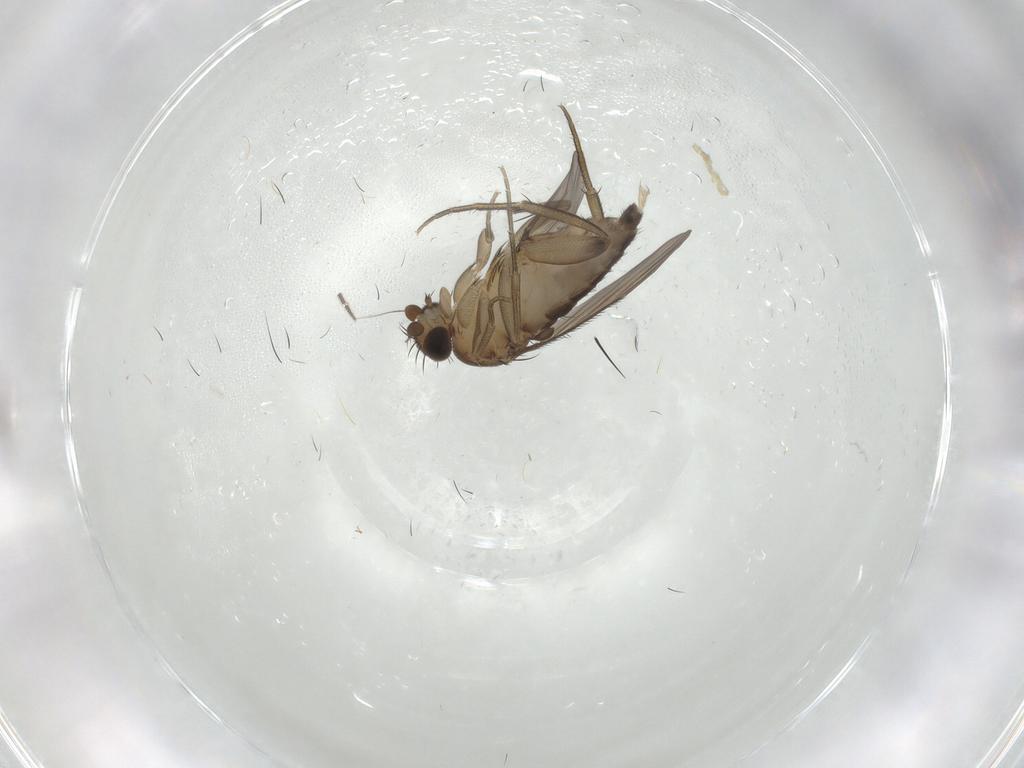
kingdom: Animalia
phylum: Arthropoda
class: Insecta
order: Diptera
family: Phoridae
